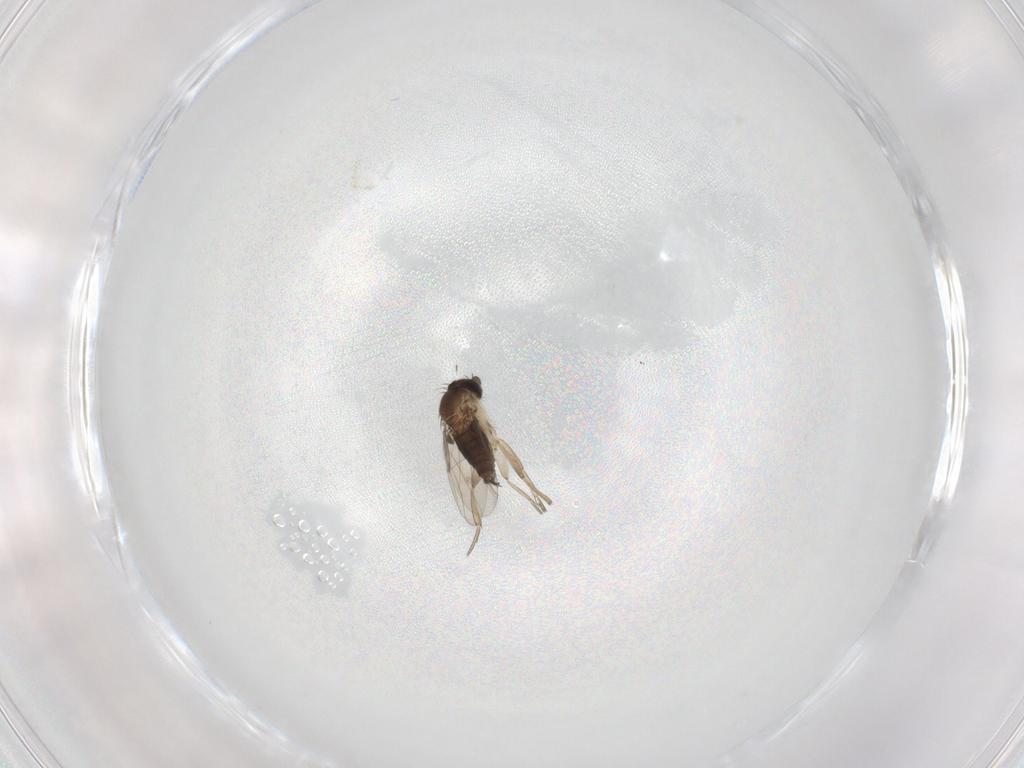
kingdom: Animalia
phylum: Arthropoda
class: Insecta
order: Diptera
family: Phoridae
